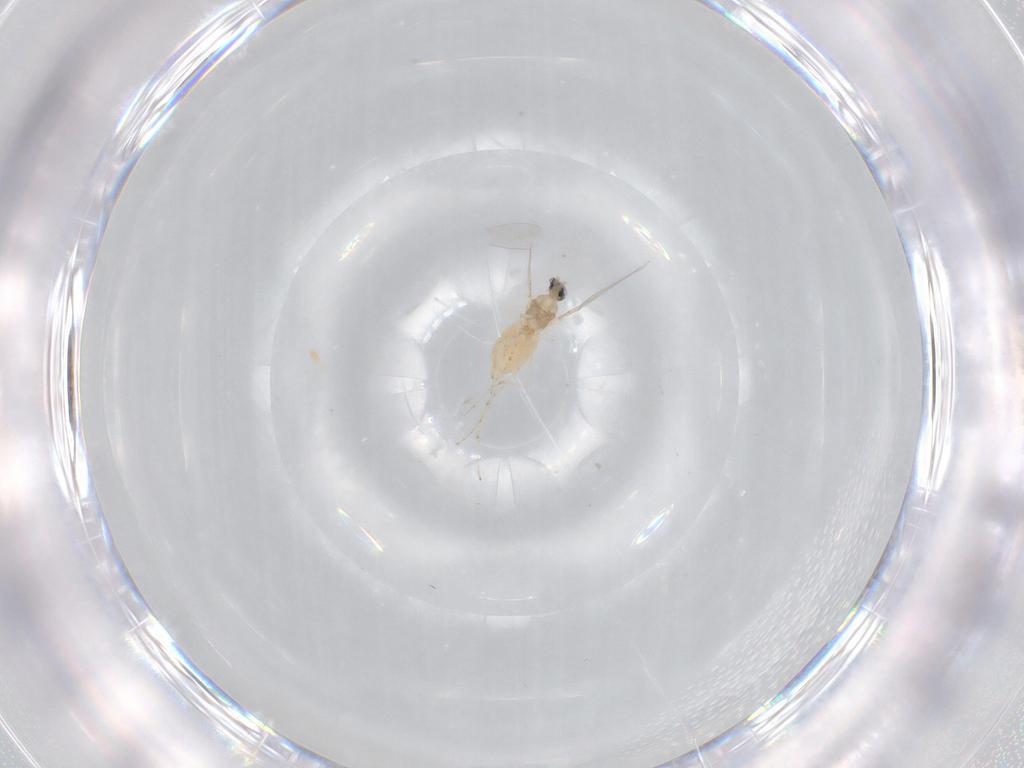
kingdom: Animalia
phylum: Arthropoda
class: Insecta
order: Diptera
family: Cecidomyiidae
